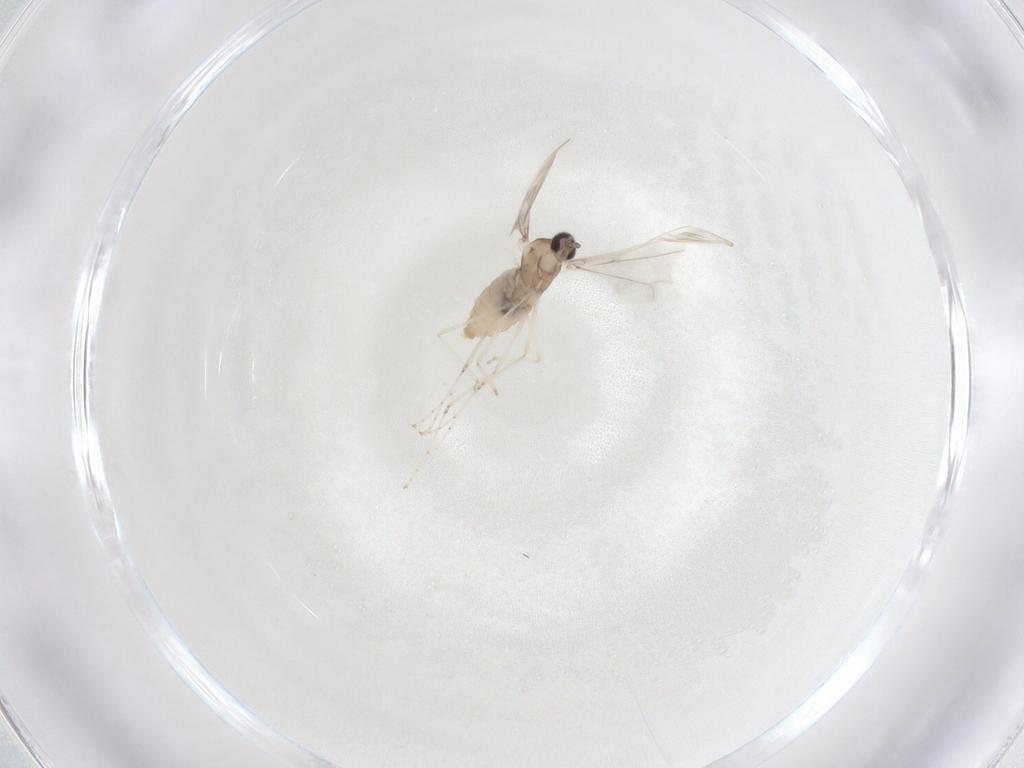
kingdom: Animalia
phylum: Arthropoda
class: Insecta
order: Diptera
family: Cecidomyiidae
